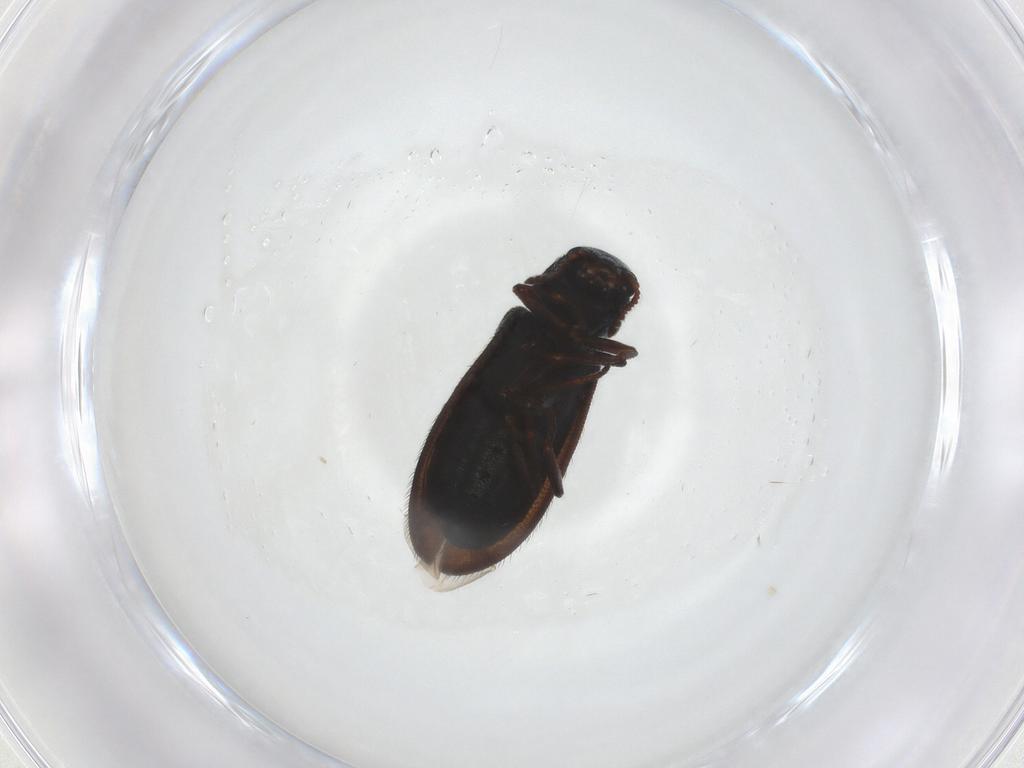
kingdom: Animalia
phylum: Arthropoda
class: Insecta
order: Coleoptera
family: Melyridae
